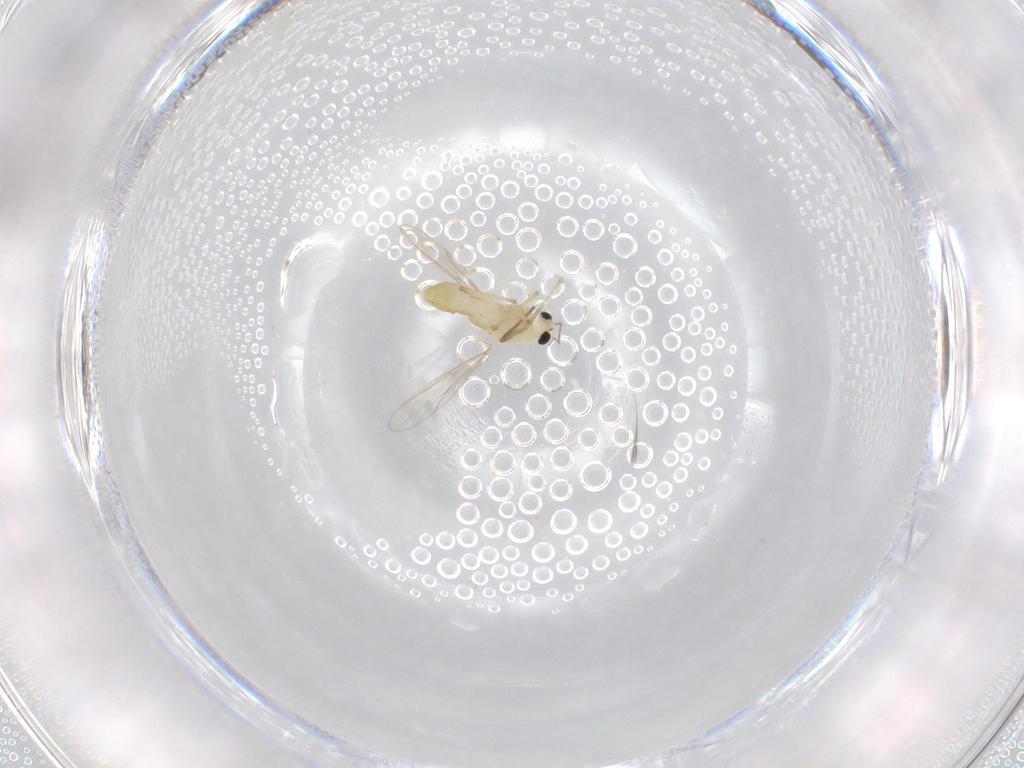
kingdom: Animalia
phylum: Arthropoda
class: Insecta
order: Diptera
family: Chironomidae
